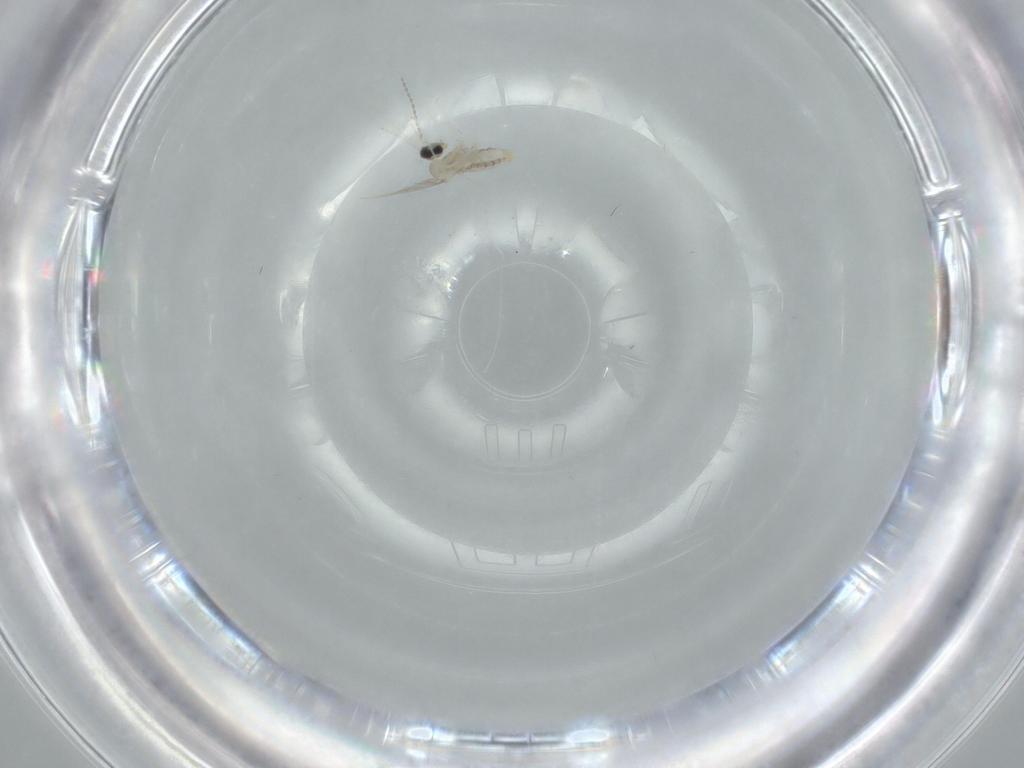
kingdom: Animalia
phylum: Arthropoda
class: Insecta
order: Diptera
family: Cecidomyiidae
